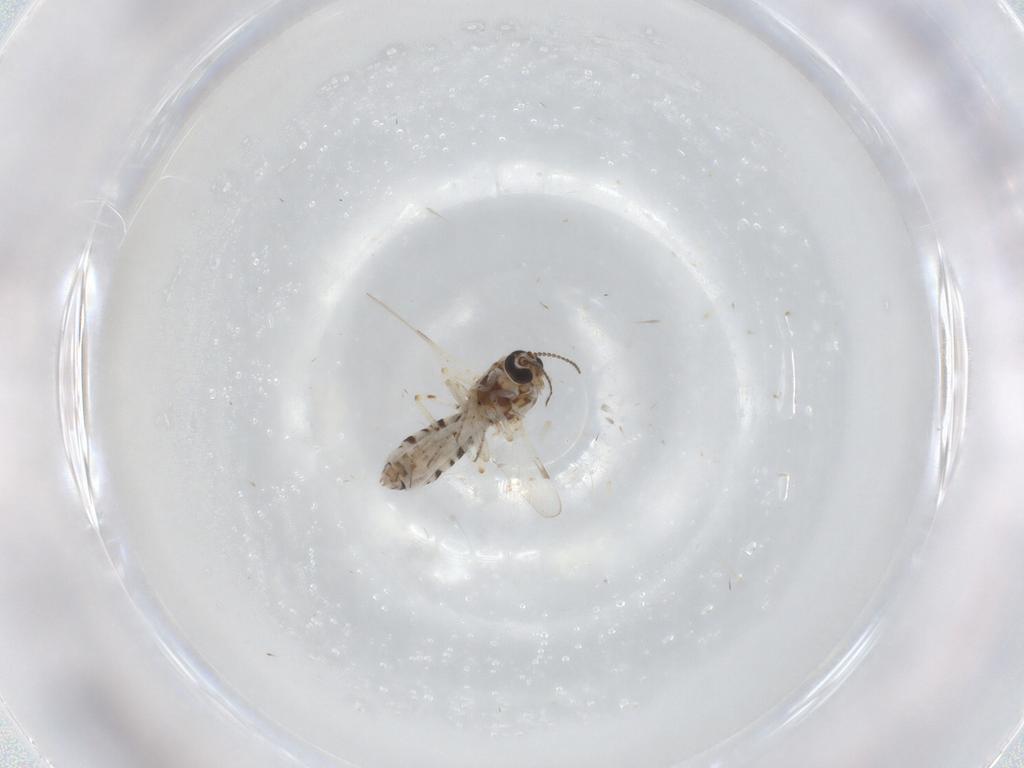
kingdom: Animalia
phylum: Arthropoda
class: Insecta
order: Diptera
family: Ceratopogonidae
